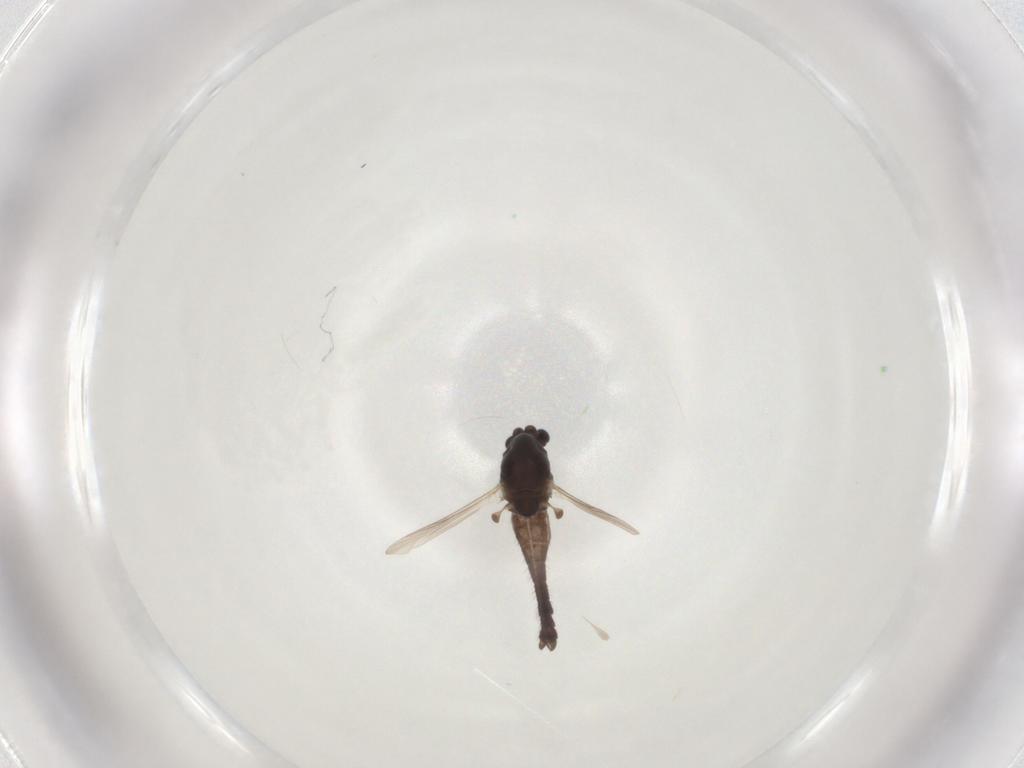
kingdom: Animalia
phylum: Arthropoda
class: Insecta
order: Diptera
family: Chironomidae
